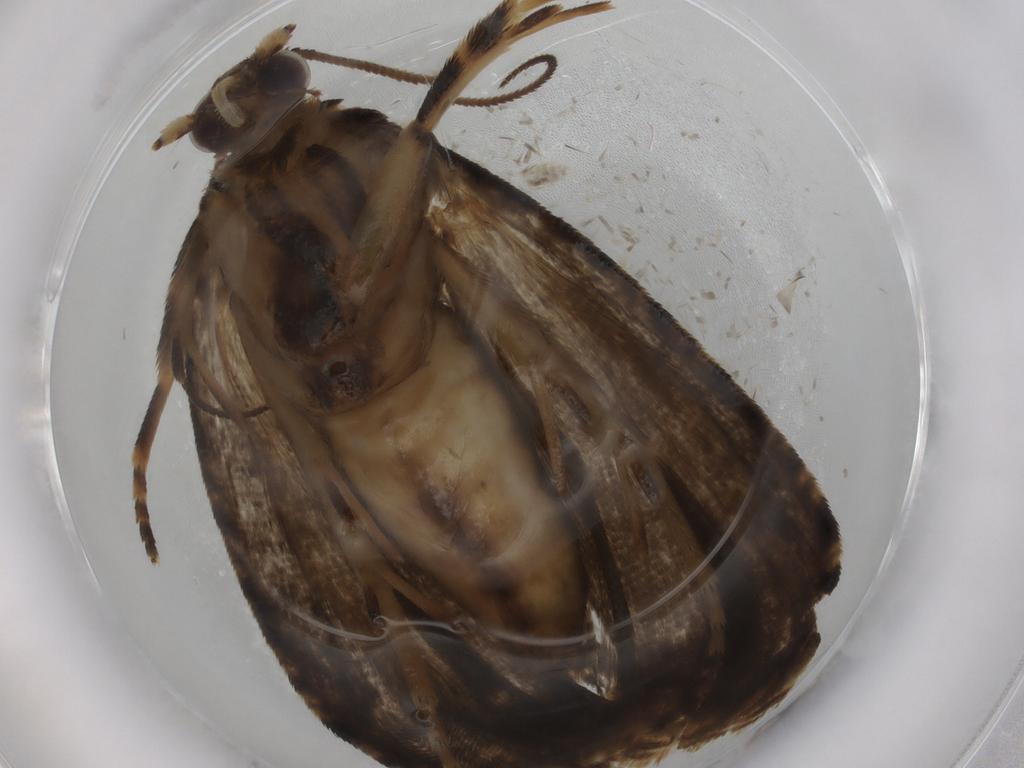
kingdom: Animalia
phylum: Arthropoda
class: Insecta
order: Lepidoptera
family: Tortricidae
